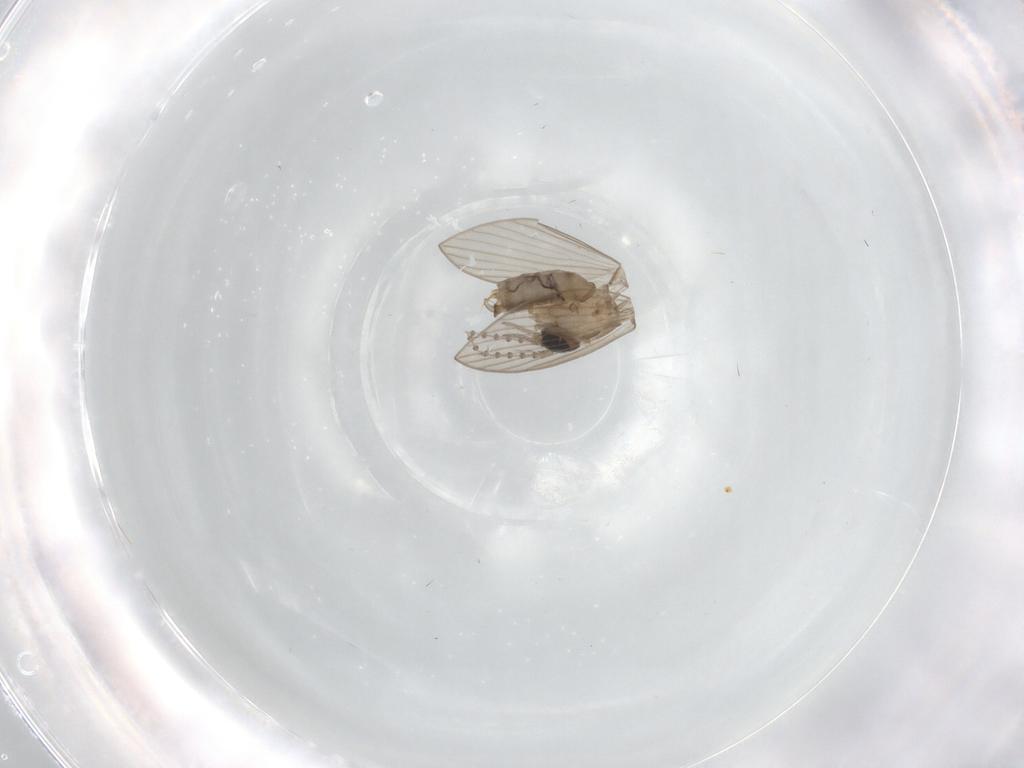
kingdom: Animalia
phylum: Arthropoda
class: Insecta
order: Diptera
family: Psychodidae
